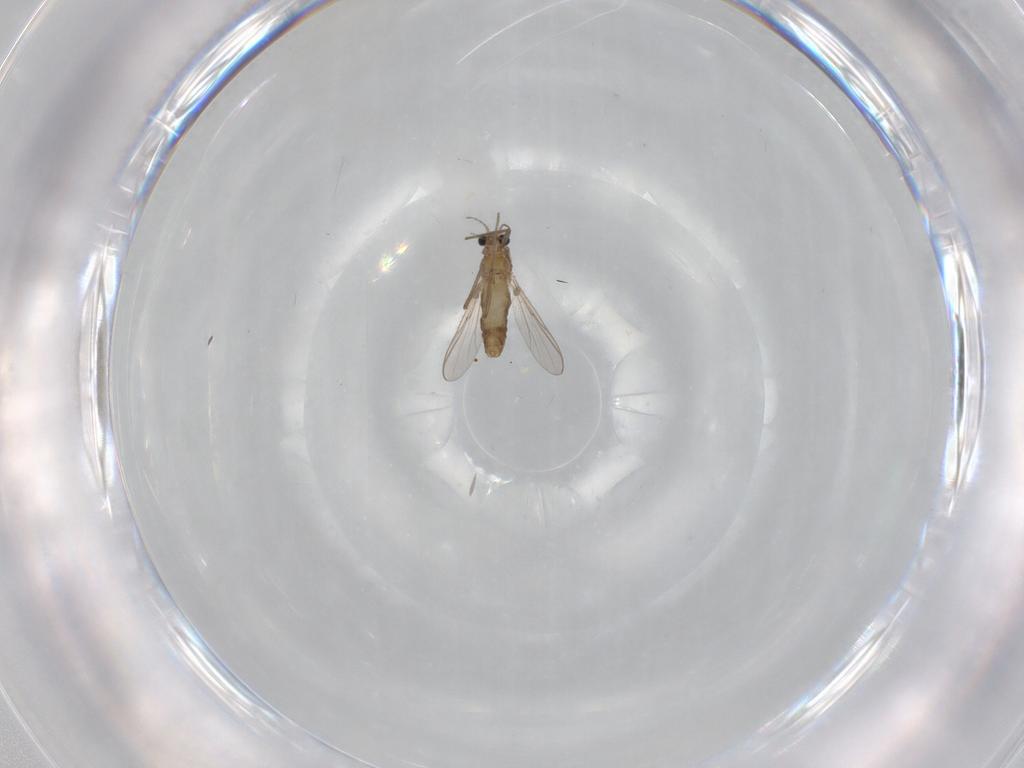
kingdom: Animalia
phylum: Arthropoda
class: Insecta
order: Diptera
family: Chironomidae
